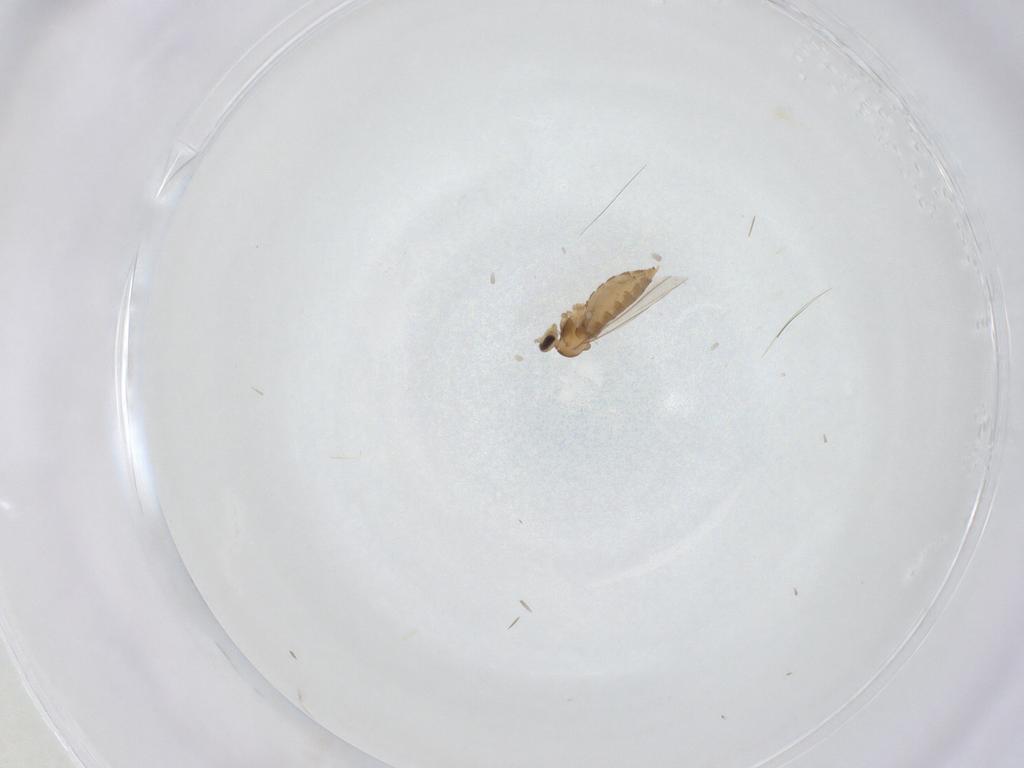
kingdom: Animalia
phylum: Arthropoda
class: Insecta
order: Diptera
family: Sciaridae
